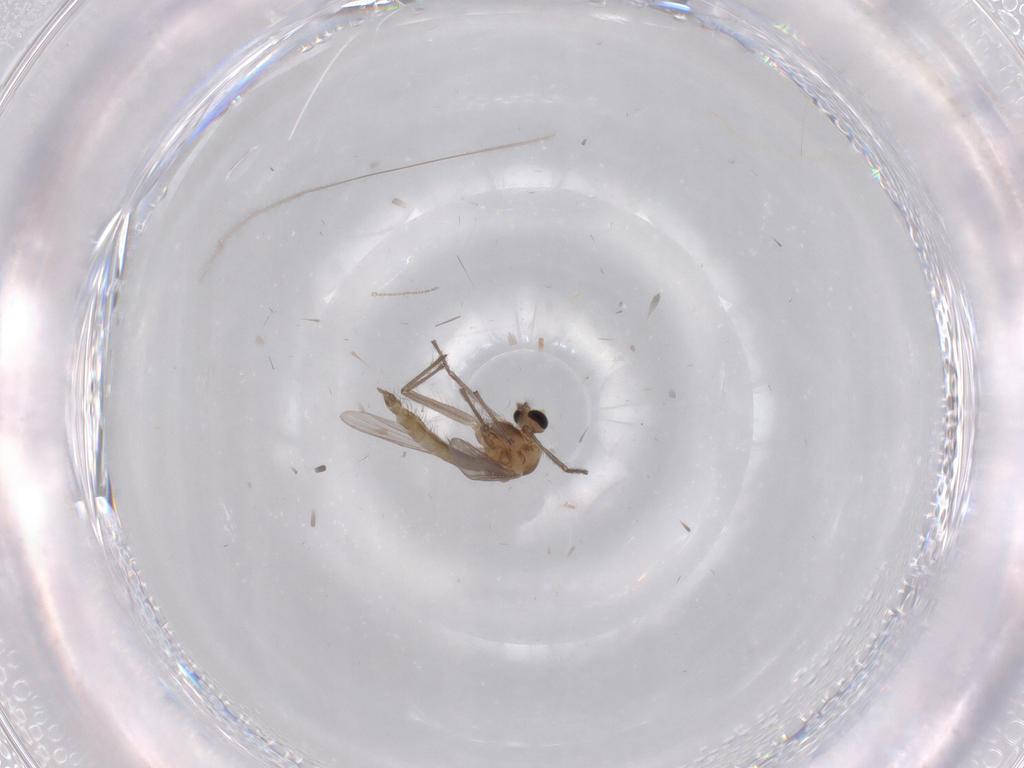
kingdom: Animalia
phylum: Arthropoda
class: Insecta
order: Diptera
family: Chironomidae
